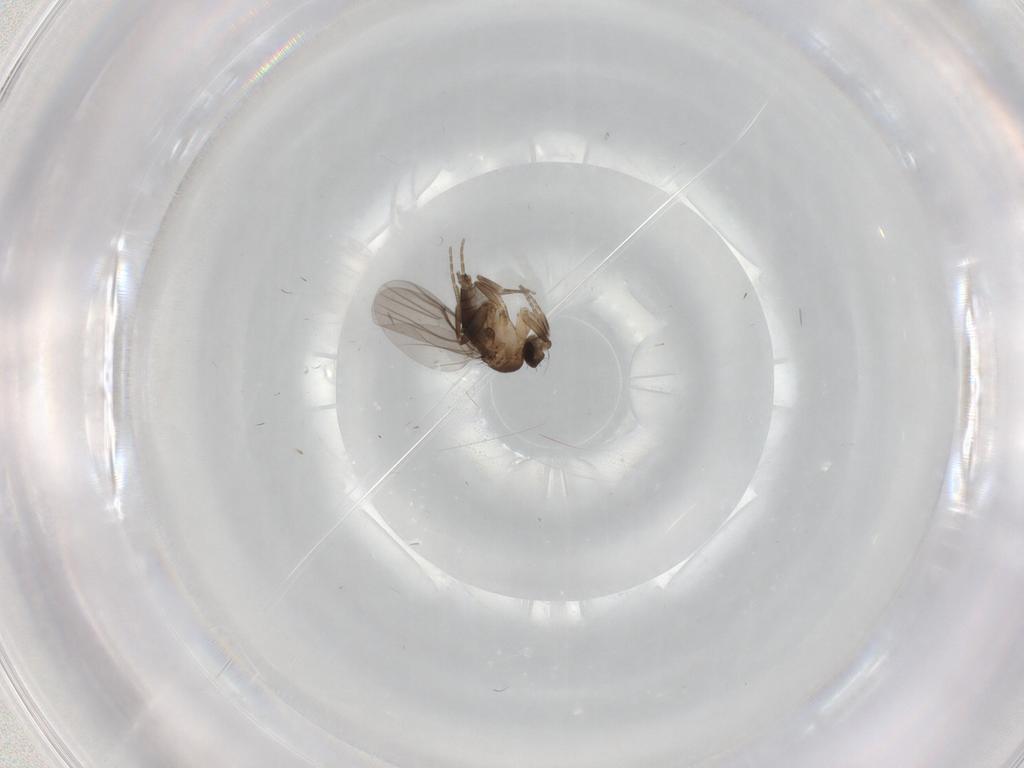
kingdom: Animalia
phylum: Arthropoda
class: Insecta
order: Diptera
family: Phoridae
